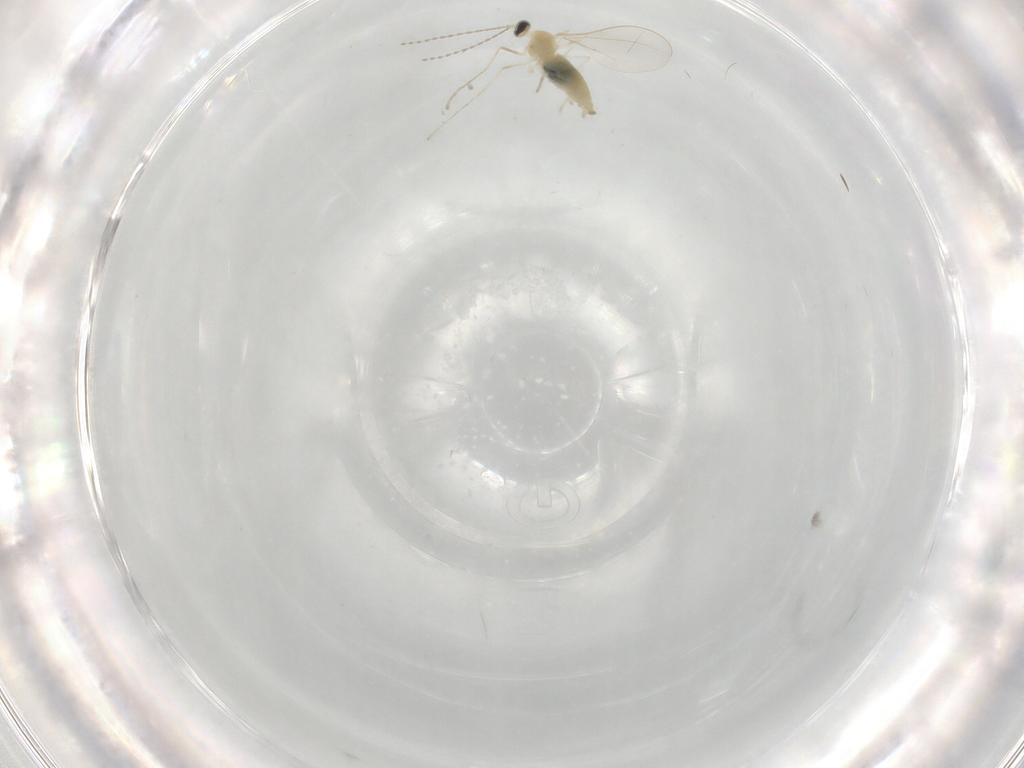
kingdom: Animalia
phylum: Arthropoda
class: Insecta
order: Diptera
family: Cecidomyiidae
